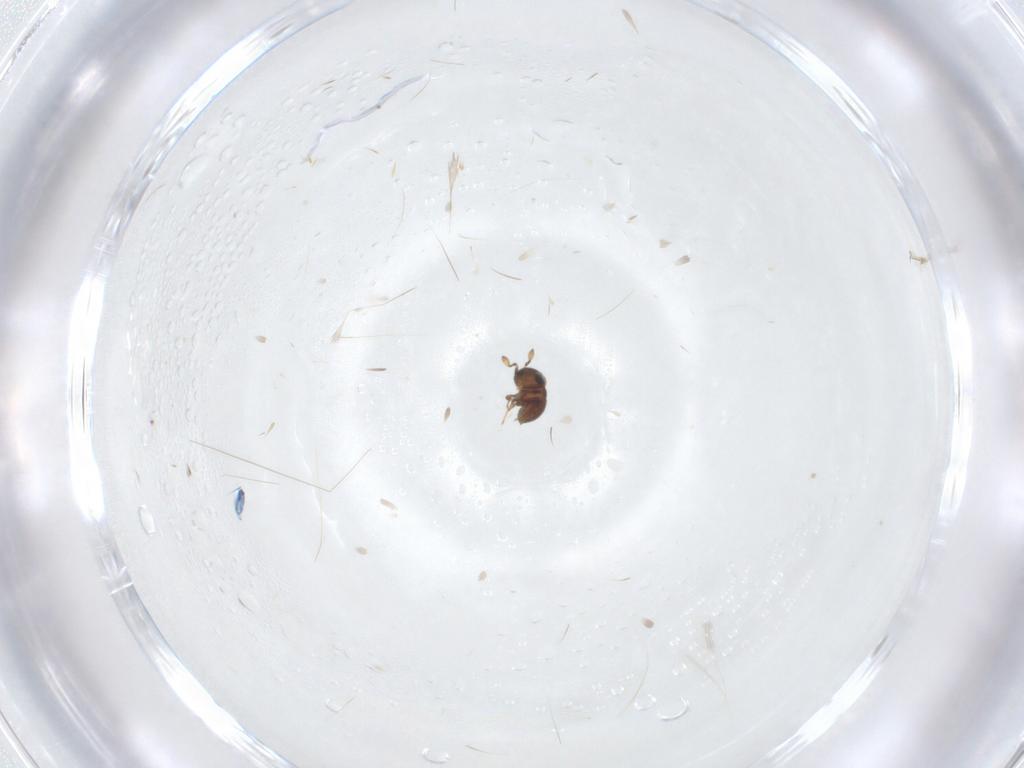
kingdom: Animalia
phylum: Arthropoda
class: Insecta
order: Hymenoptera
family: Scelionidae
